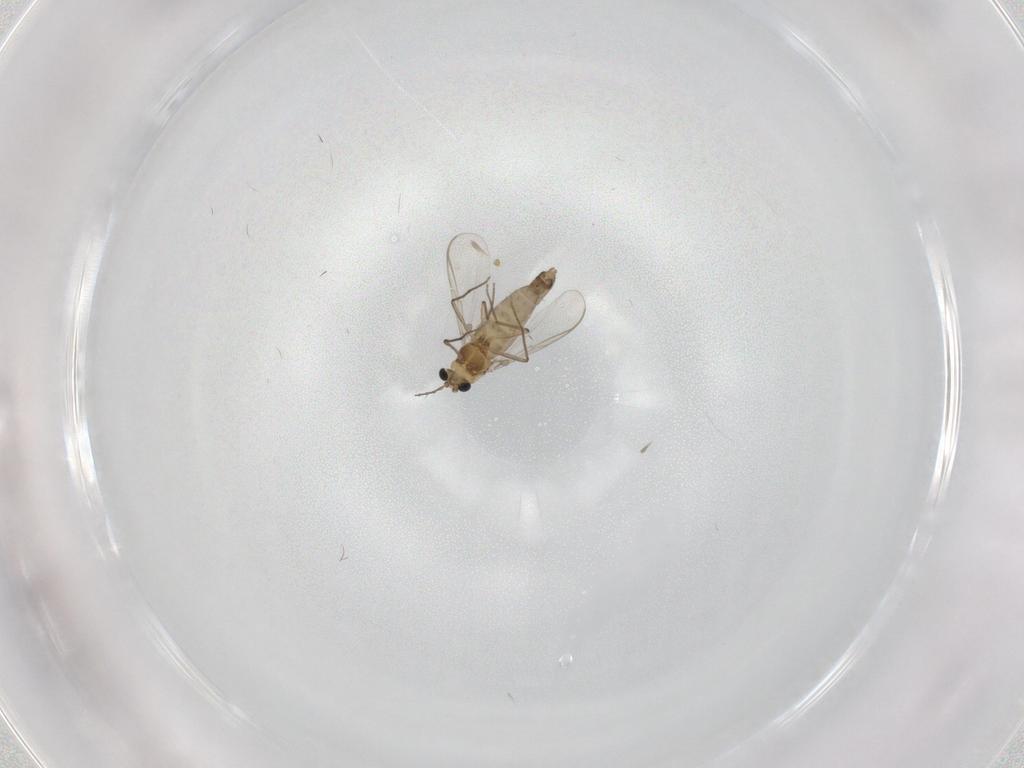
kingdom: Animalia
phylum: Arthropoda
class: Insecta
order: Diptera
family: Chironomidae
